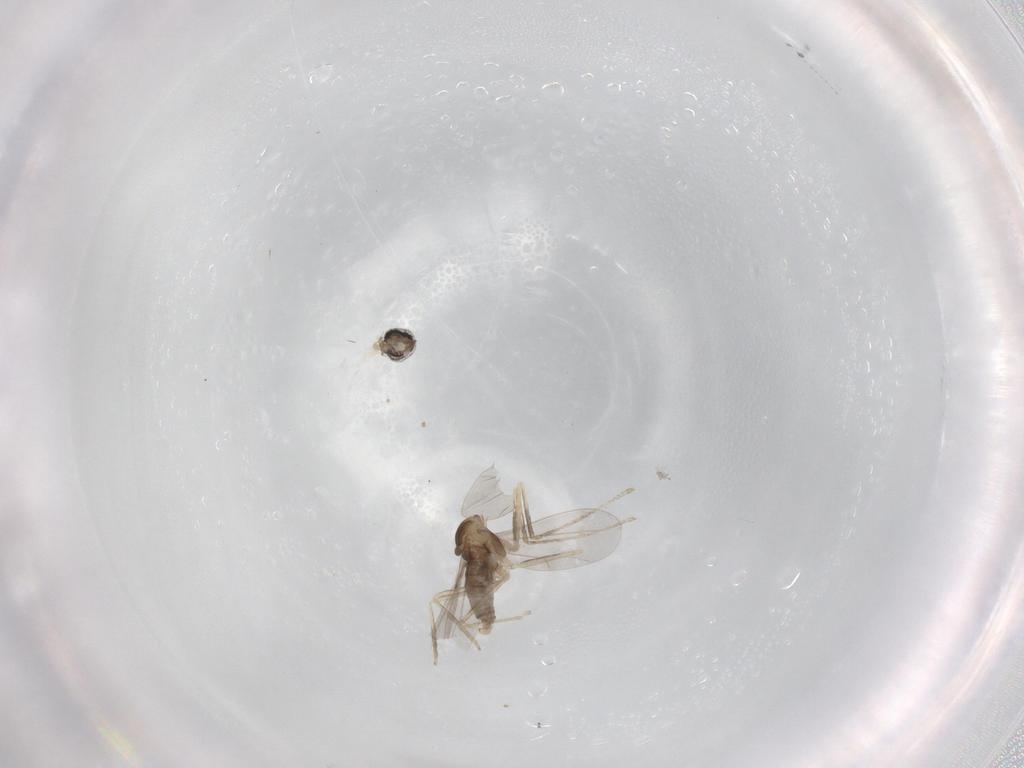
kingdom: Animalia
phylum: Arthropoda
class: Insecta
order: Diptera
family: Cecidomyiidae
